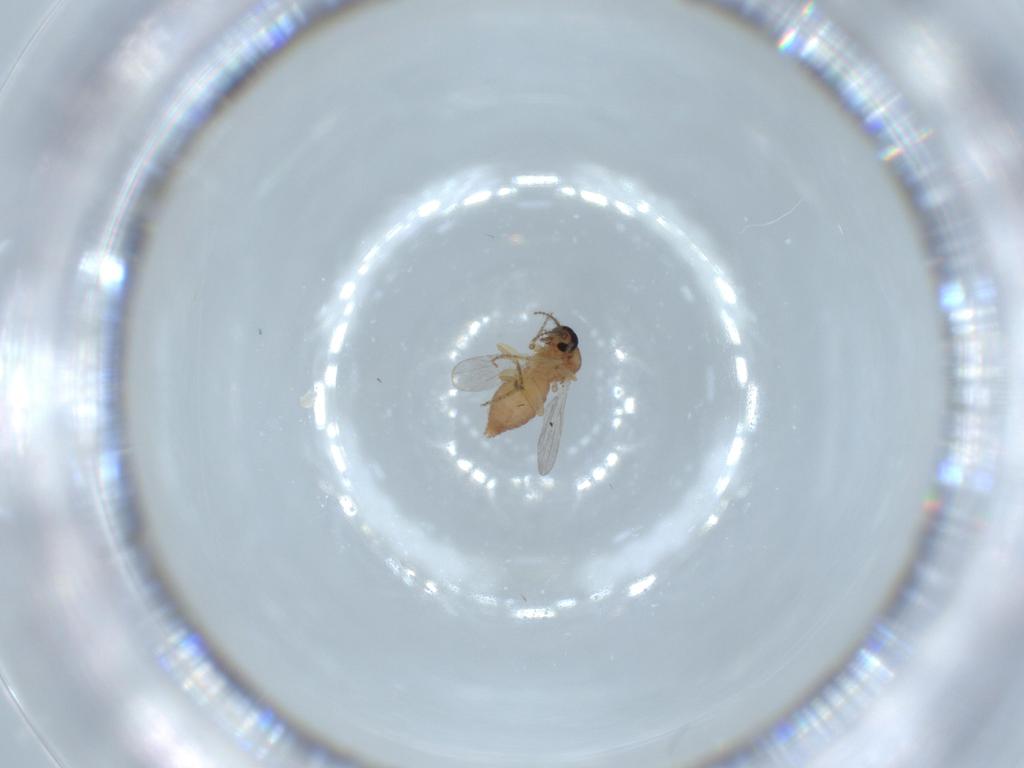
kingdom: Animalia
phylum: Arthropoda
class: Insecta
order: Diptera
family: Ceratopogonidae
